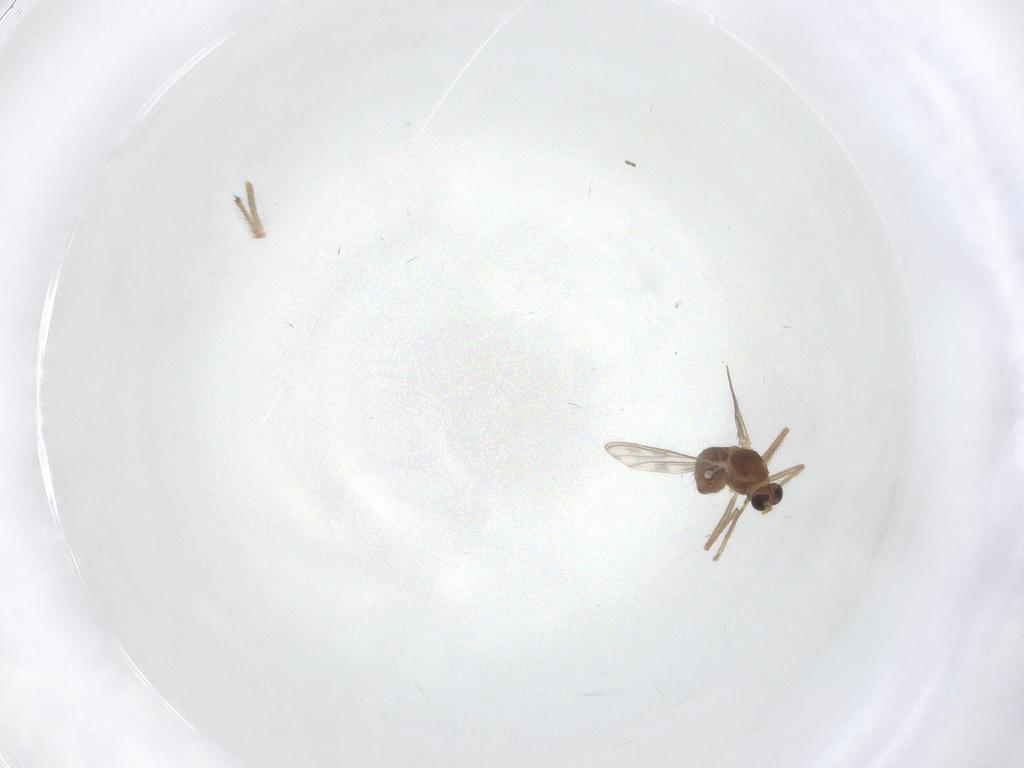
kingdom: Animalia
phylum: Arthropoda
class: Insecta
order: Diptera
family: Chironomidae
